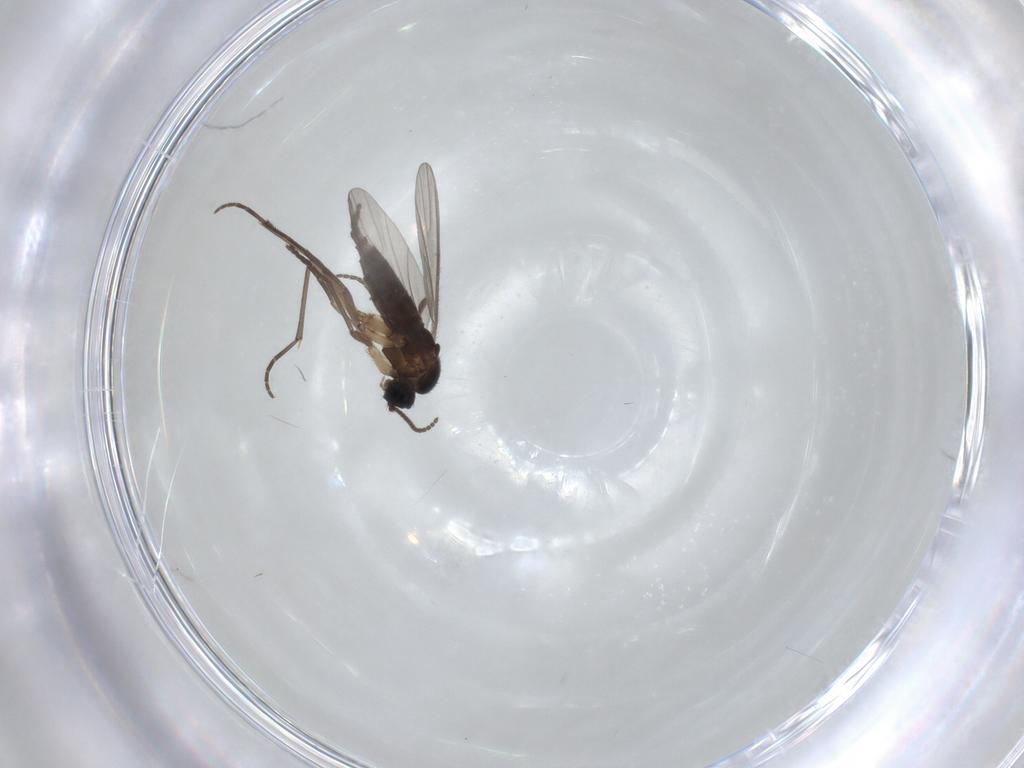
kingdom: Animalia
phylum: Arthropoda
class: Insecta
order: Diptera
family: Sciaridae
